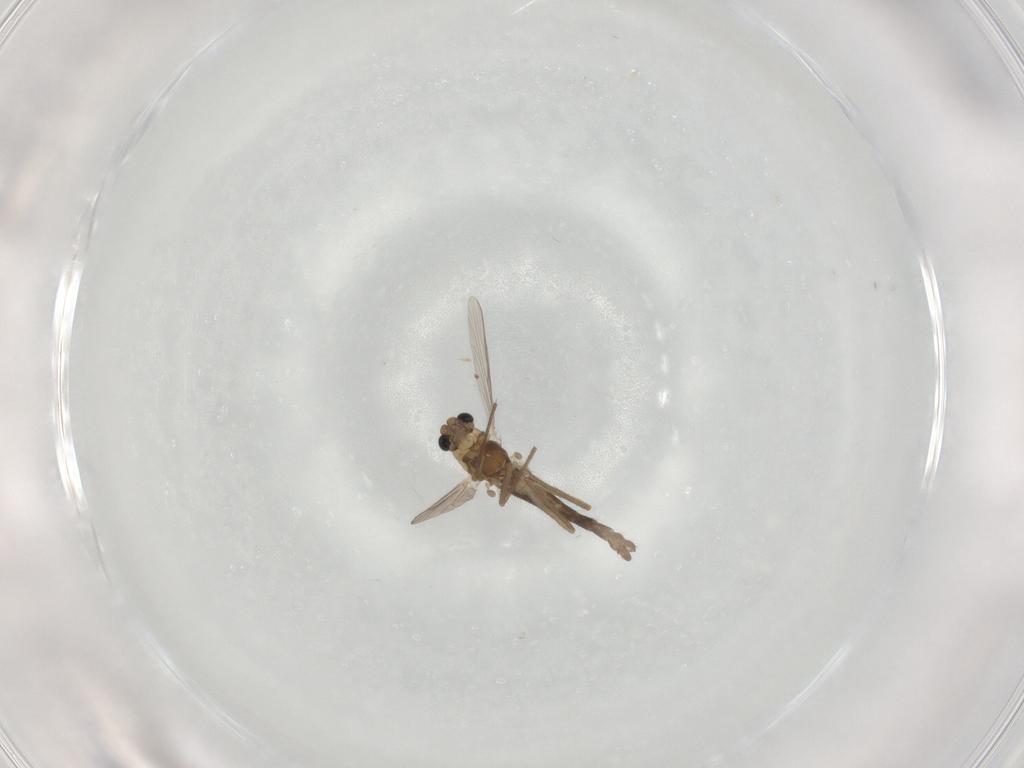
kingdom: Animalia
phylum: Arthropoda
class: Insecta
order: Diptera
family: Chironomidae
